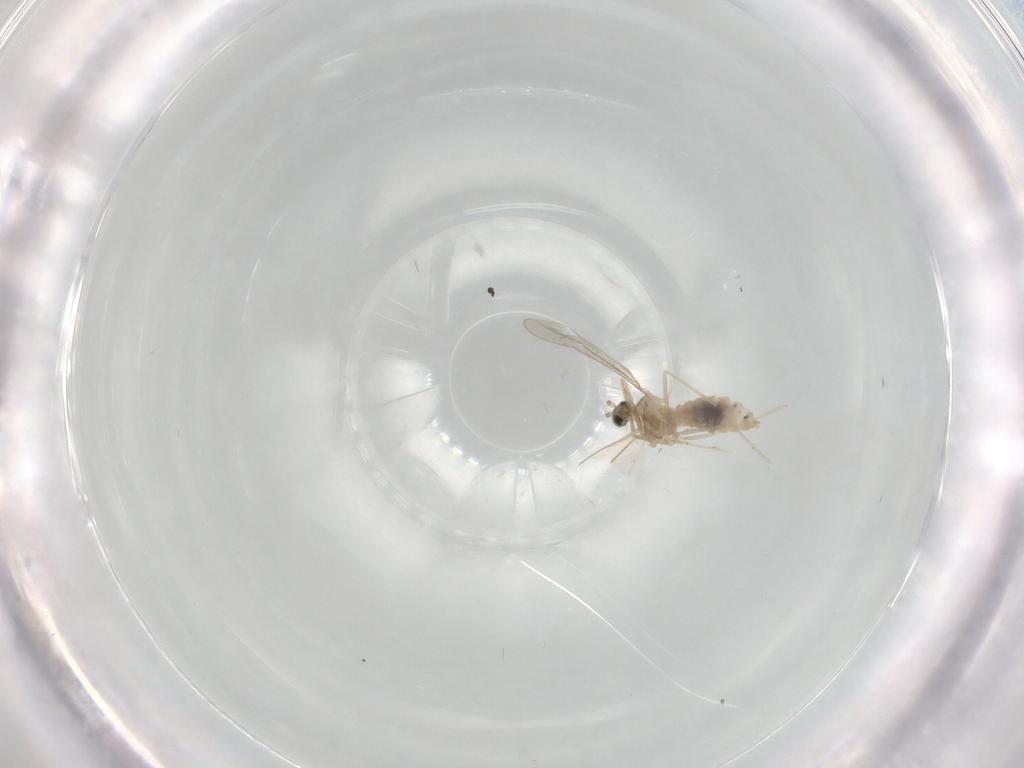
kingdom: Animalia
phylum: Arthropoda
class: Insecta
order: Diptera
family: Cecidomyiidae
